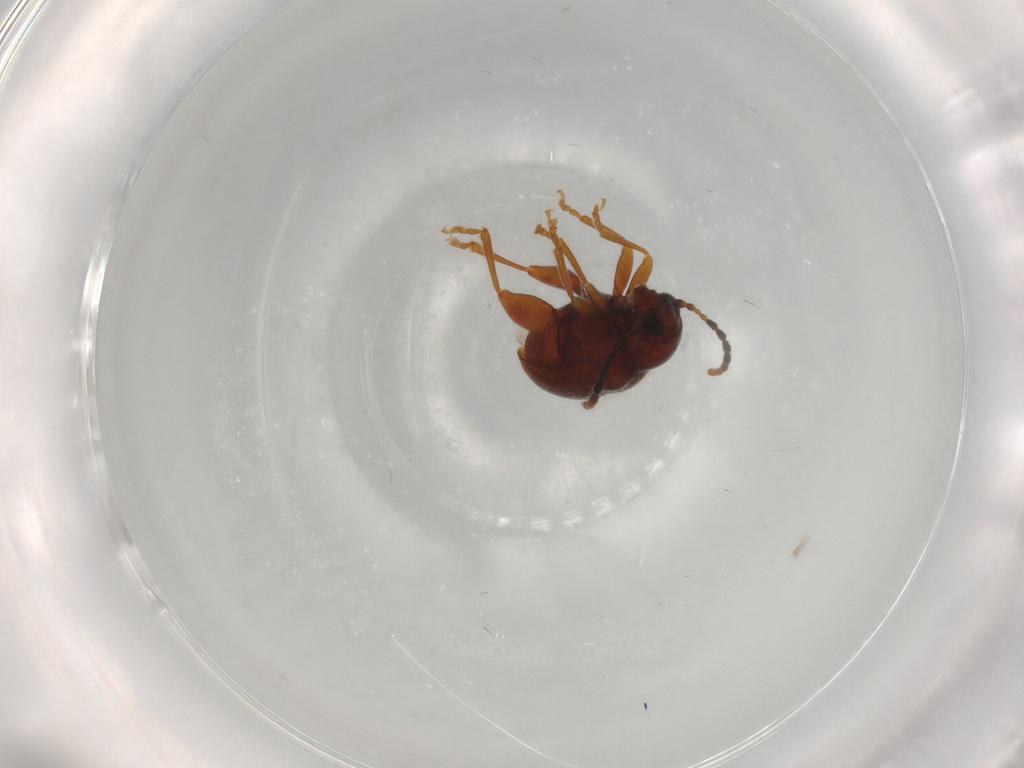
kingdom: Animalia
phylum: Arthropoda
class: Insecta
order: Coleoptera
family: Chrysomelidae
